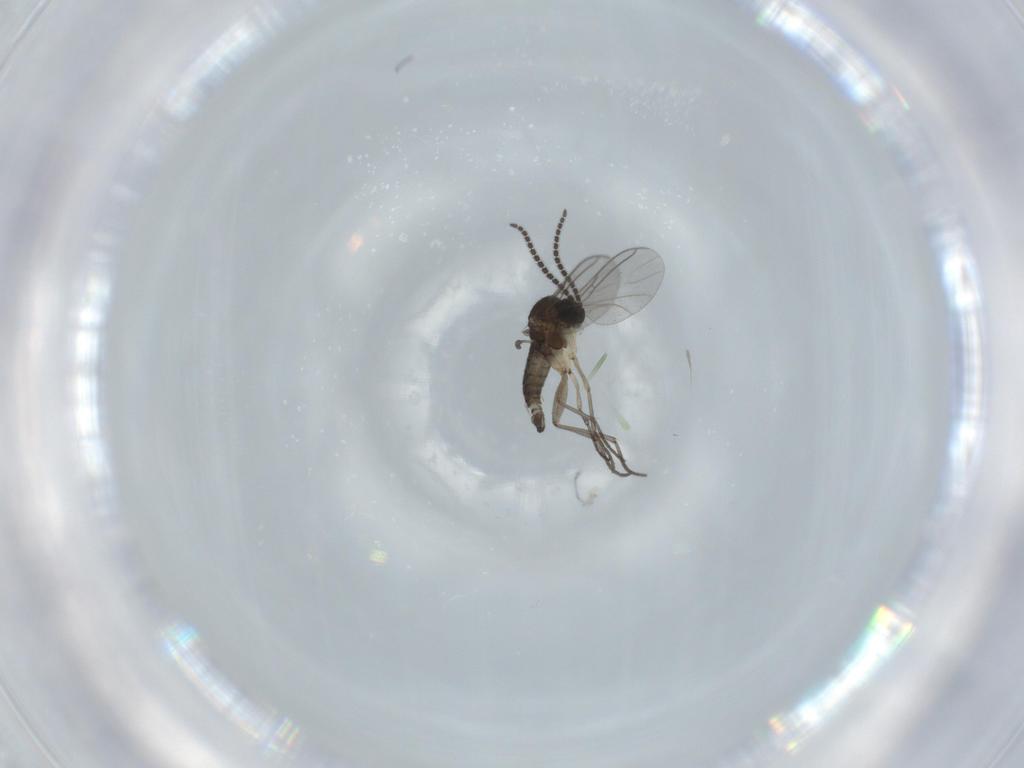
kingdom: Animalia
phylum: Arthropoda
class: Insecta
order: Diptera
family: Sciaridae
